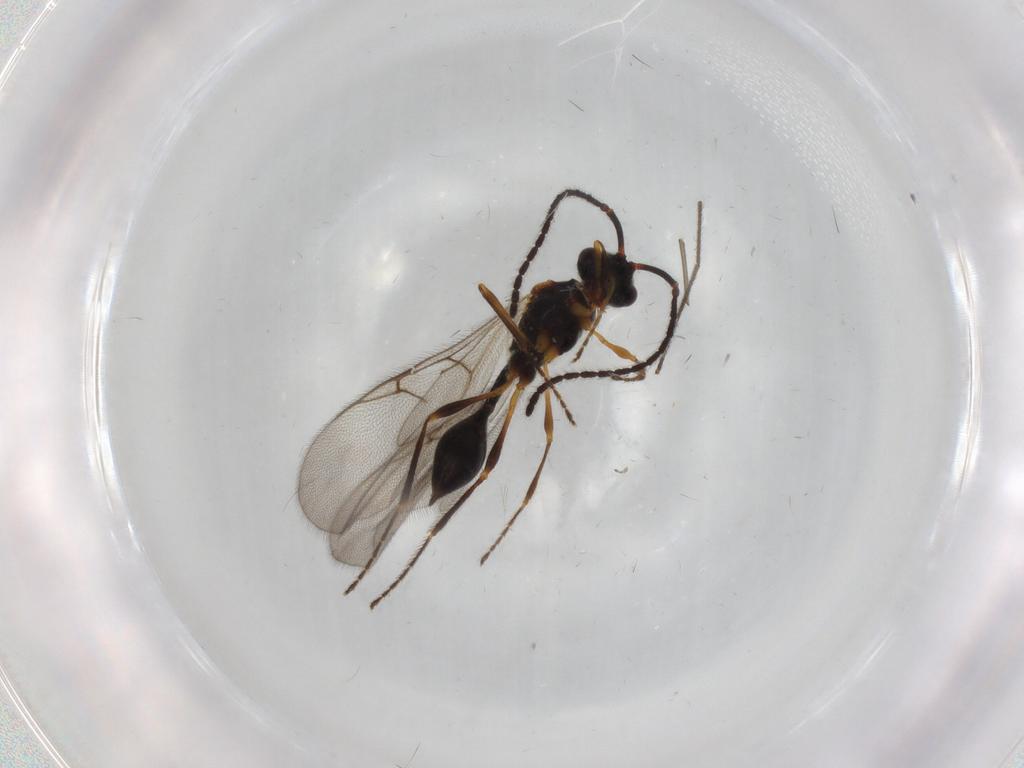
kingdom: Animalia
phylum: Arthropoda
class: Insecta
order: Hymenoptera
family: Diapriidae
